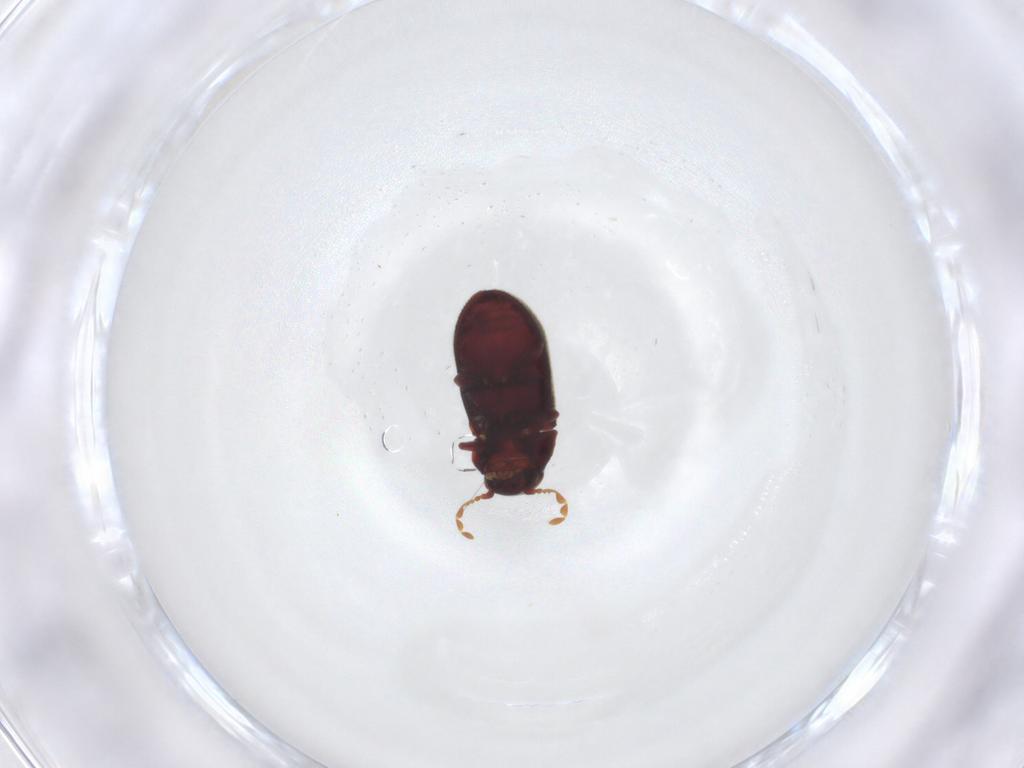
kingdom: Animalia
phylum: Arthropoda
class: Insecta
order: Coleoptera
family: Ptinidae
